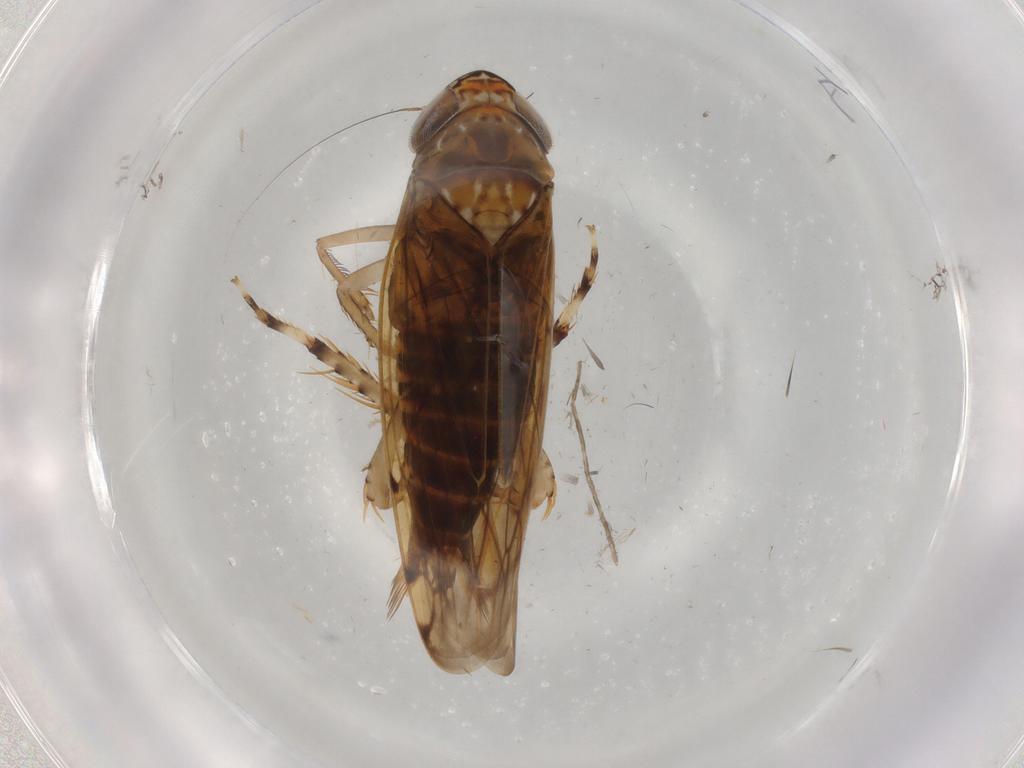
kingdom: Animalia
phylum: Arthropoda
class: Insecta
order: Hemiptera
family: Cicadellidae
